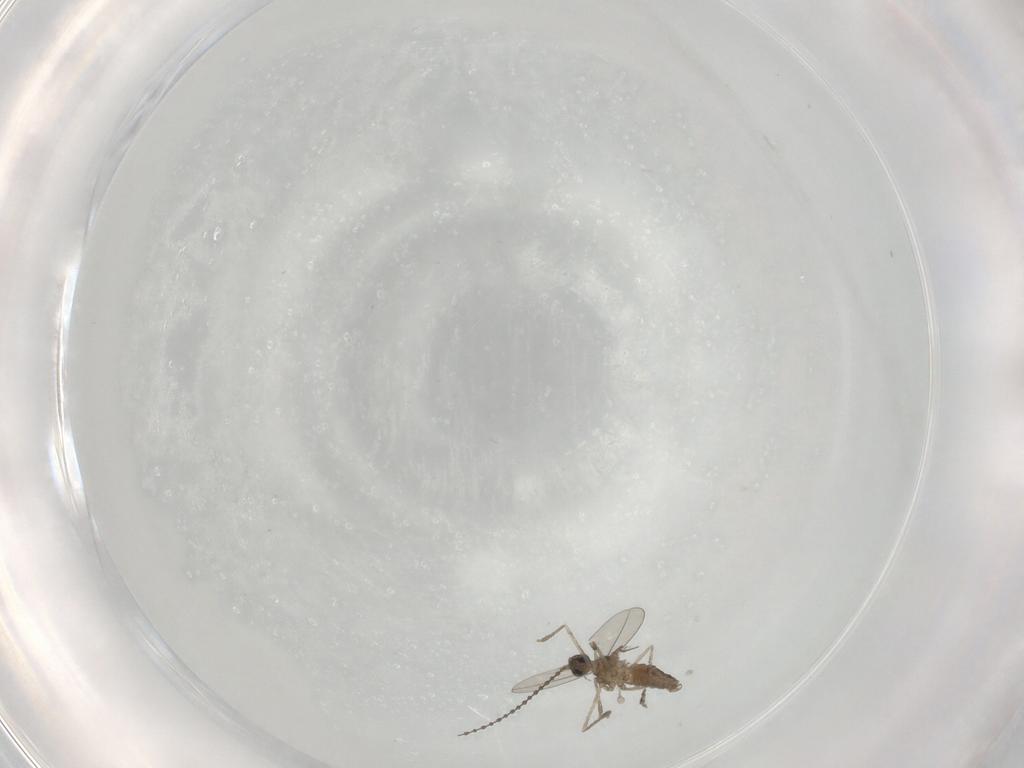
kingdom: Animalia
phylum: Arthropoda
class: Insecta
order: Diptera
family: Cecidomyiidae
